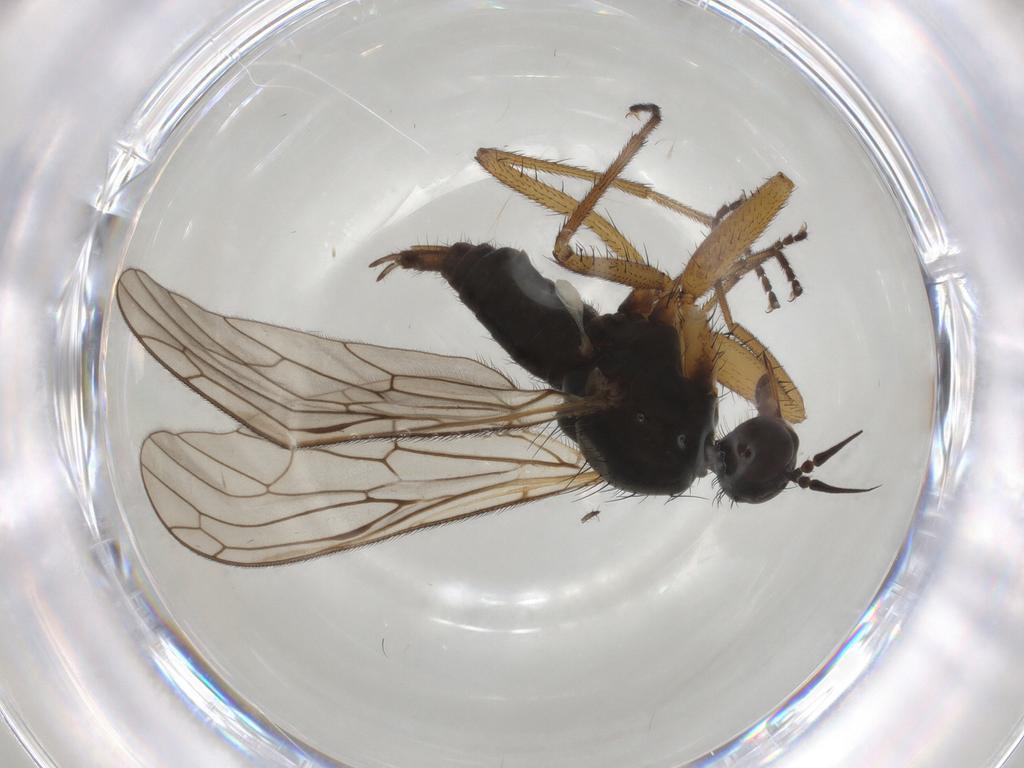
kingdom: Animalia
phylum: Arthropoda
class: Insecta
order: Diptera
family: Empididae
